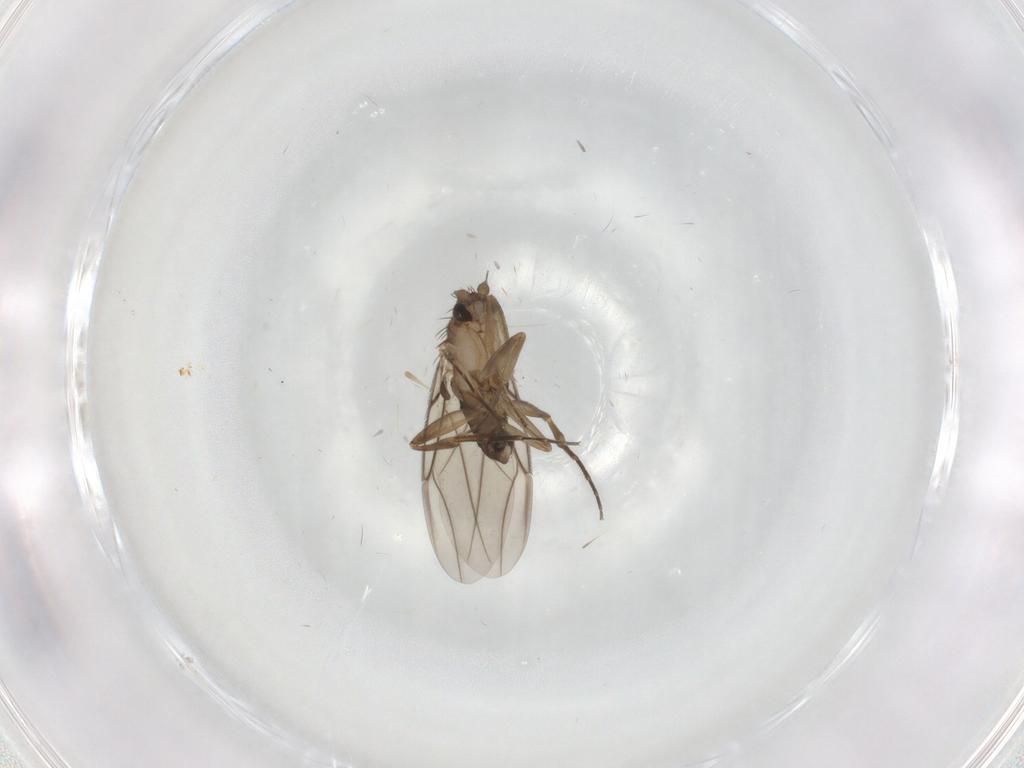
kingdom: Animalia
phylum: Arthropoda
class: Insecta
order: Diptera
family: Phoridae
